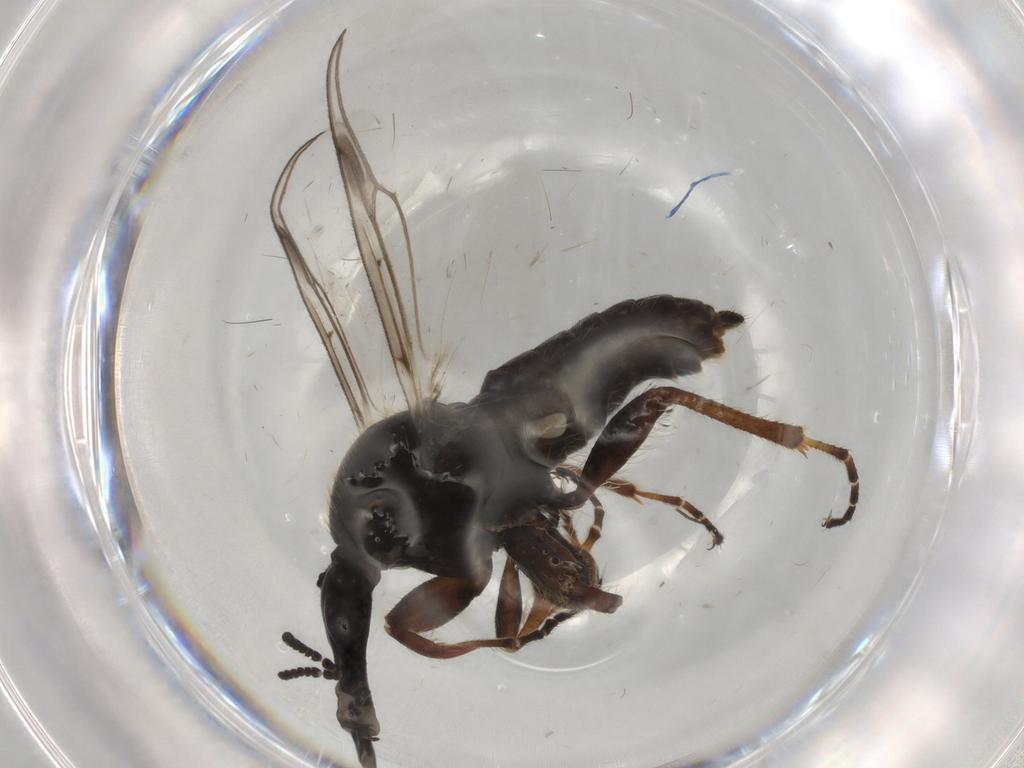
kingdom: Animalia
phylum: Arthropoda
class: Insecta
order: Diptera
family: Bibionidae
